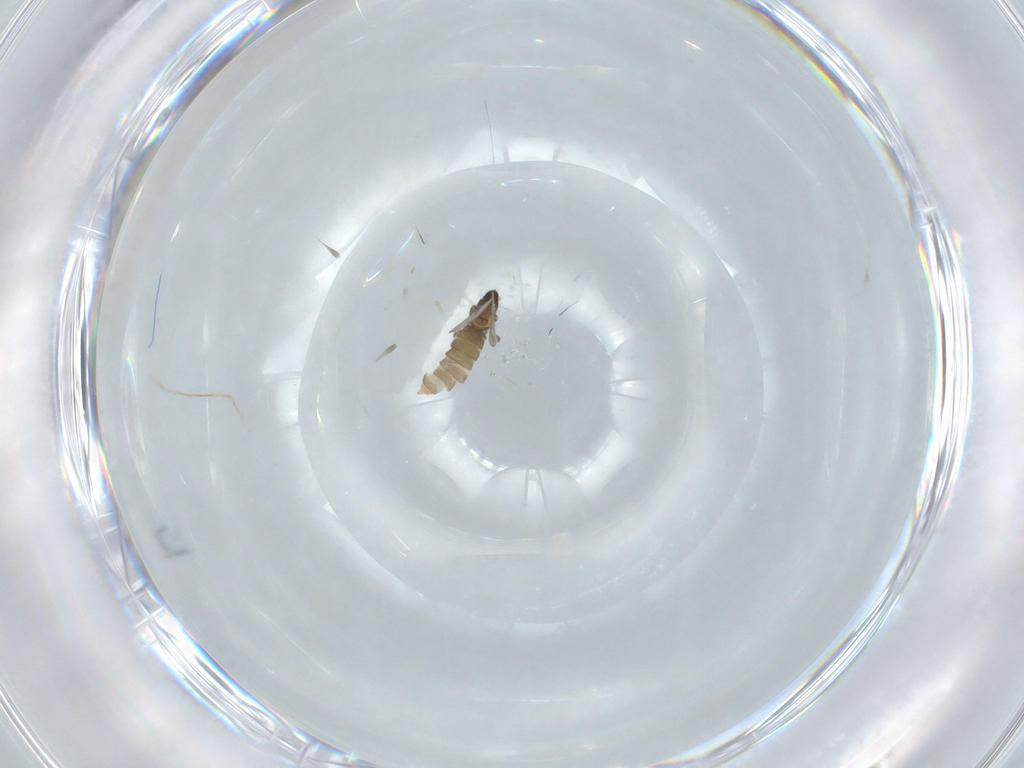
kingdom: Animalia
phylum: Arthropoda
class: Insecta
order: Diptera
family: Cecidomyiidae
